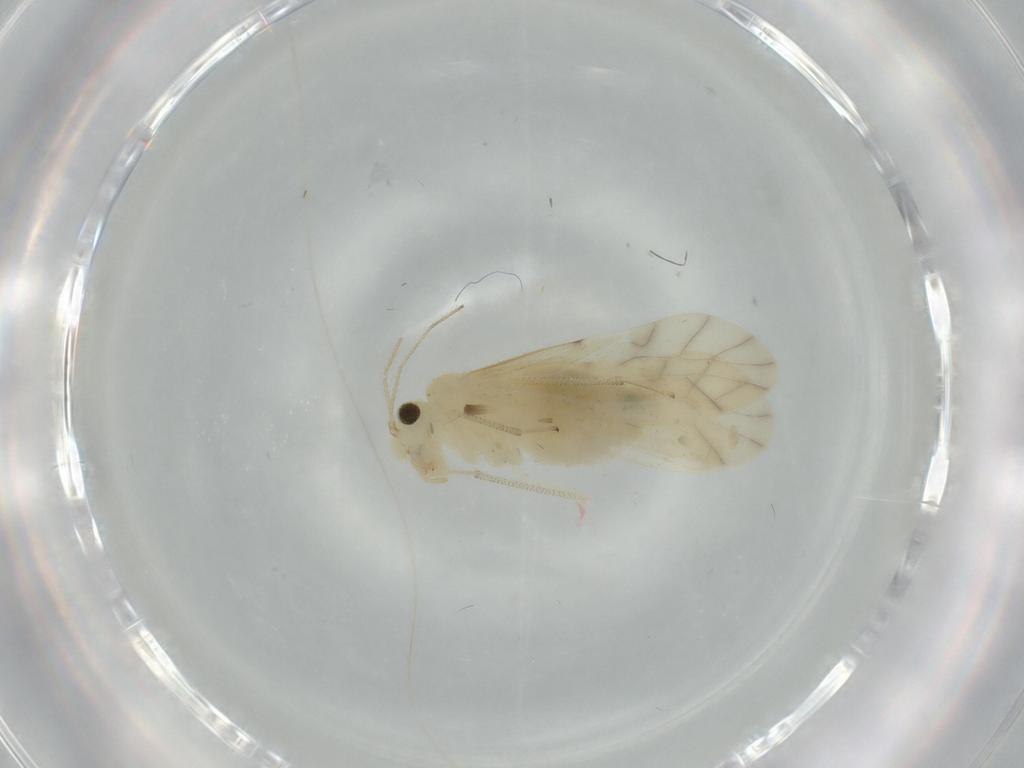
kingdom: Animalia
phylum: Arthropoda
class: Insecta
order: Psocodea
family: Caeciliusidae
